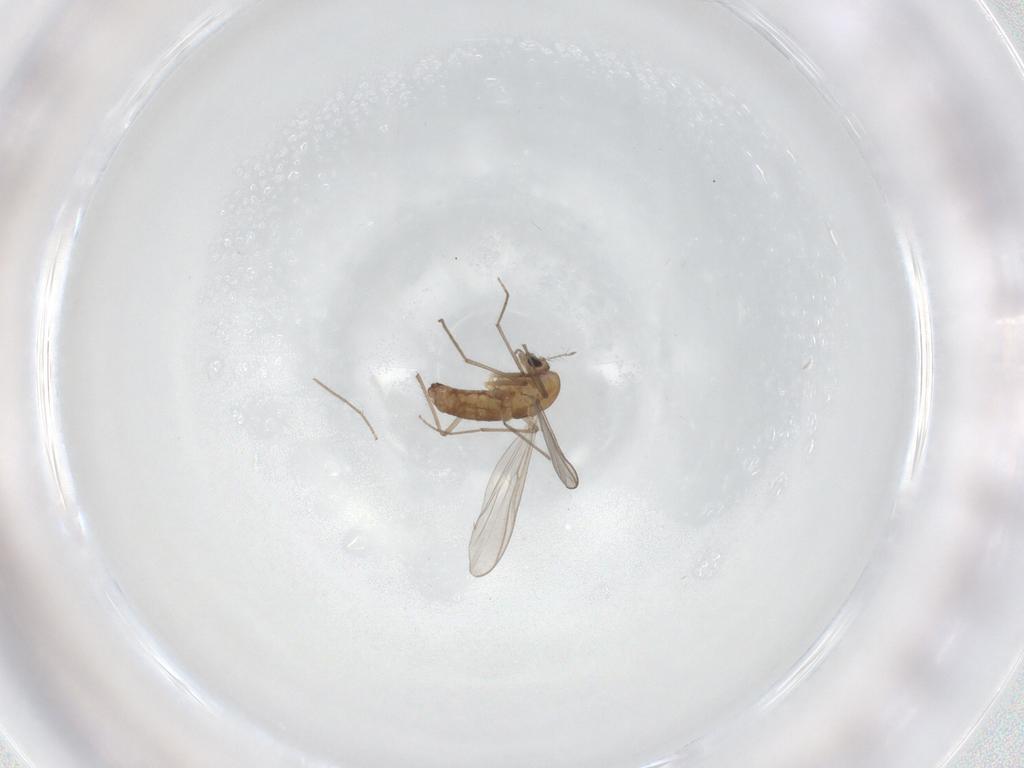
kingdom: Animalia
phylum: Arthropoda
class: Insecta
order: Diptera
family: Chironomidae
